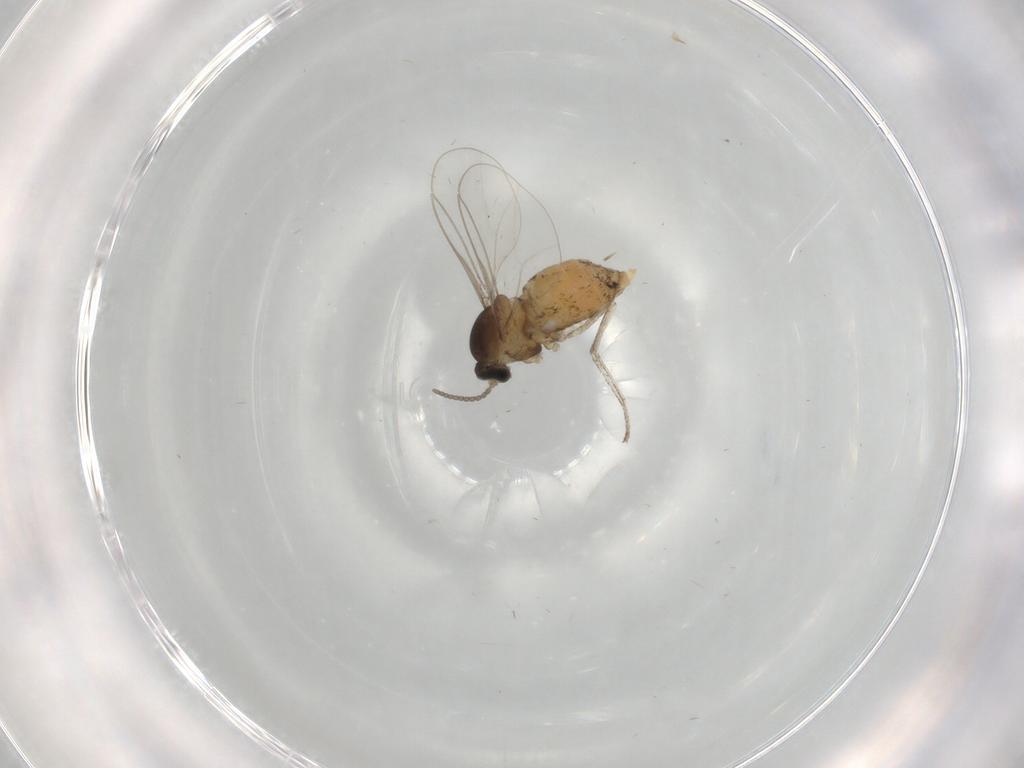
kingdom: Animalia
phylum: Arthropoda
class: Insecta
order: Diptera
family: Cecidomyiidae
